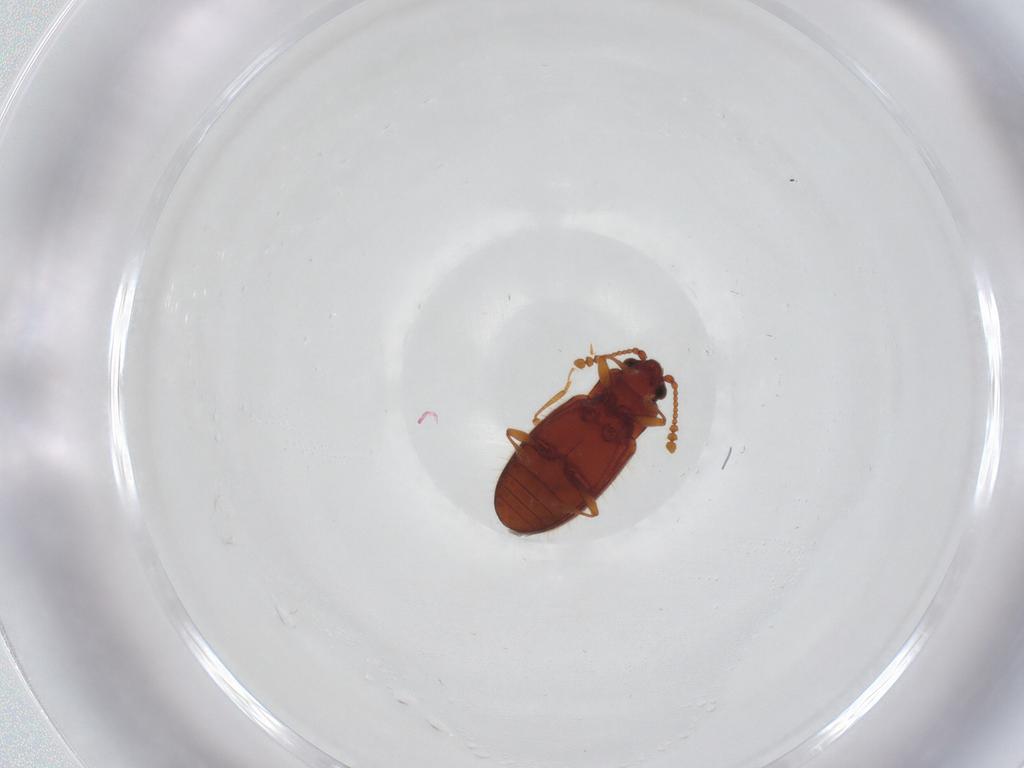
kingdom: Animalia
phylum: Arthropoda
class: Insecta
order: Coleoptera
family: Cryptophagidae
